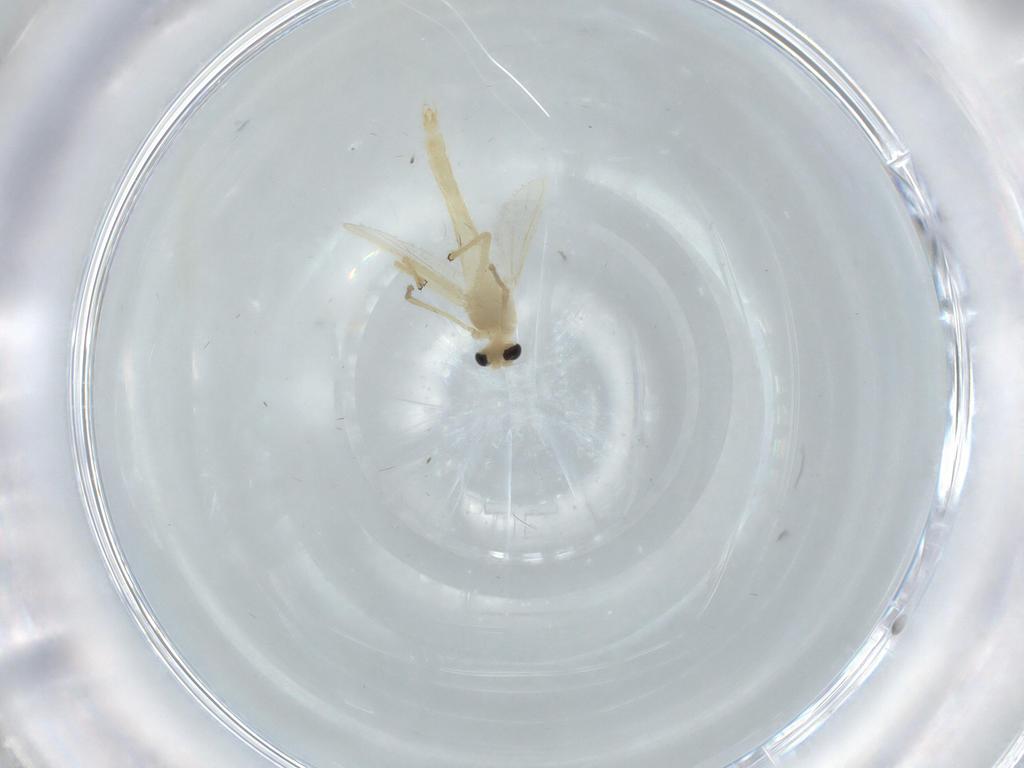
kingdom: Animalia
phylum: Arthropoda
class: Insecta
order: Diptera
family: Chironomidae
